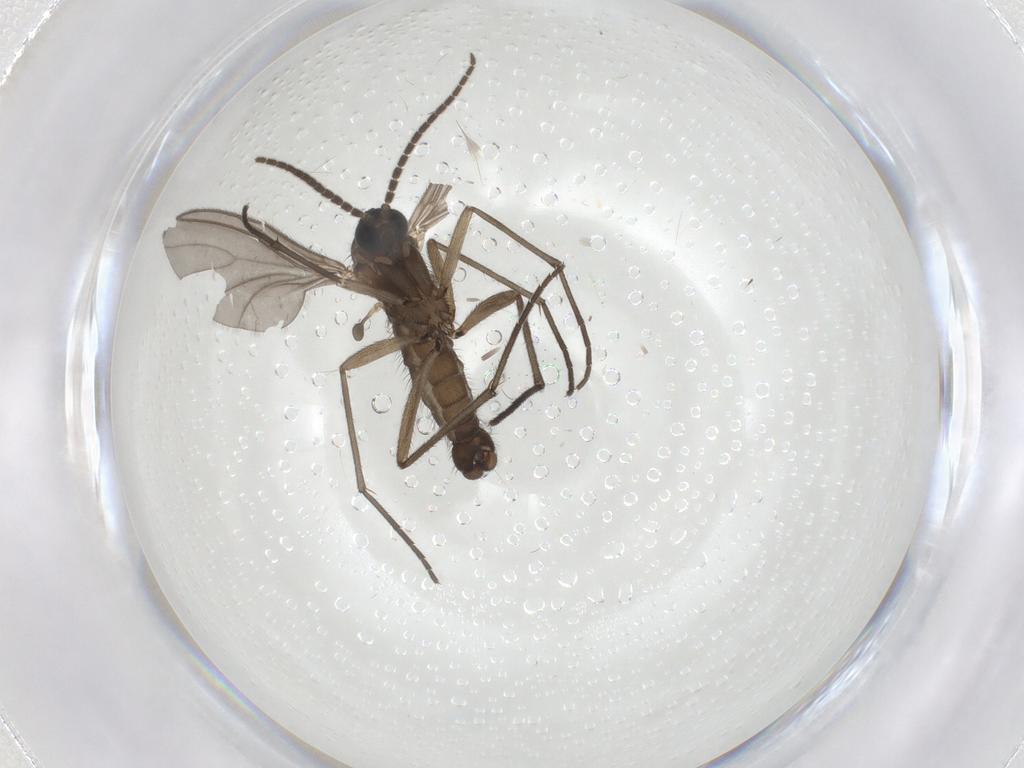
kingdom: Animalia
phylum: Arthropoda
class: Insecta
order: Diptera
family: Sciaridae
